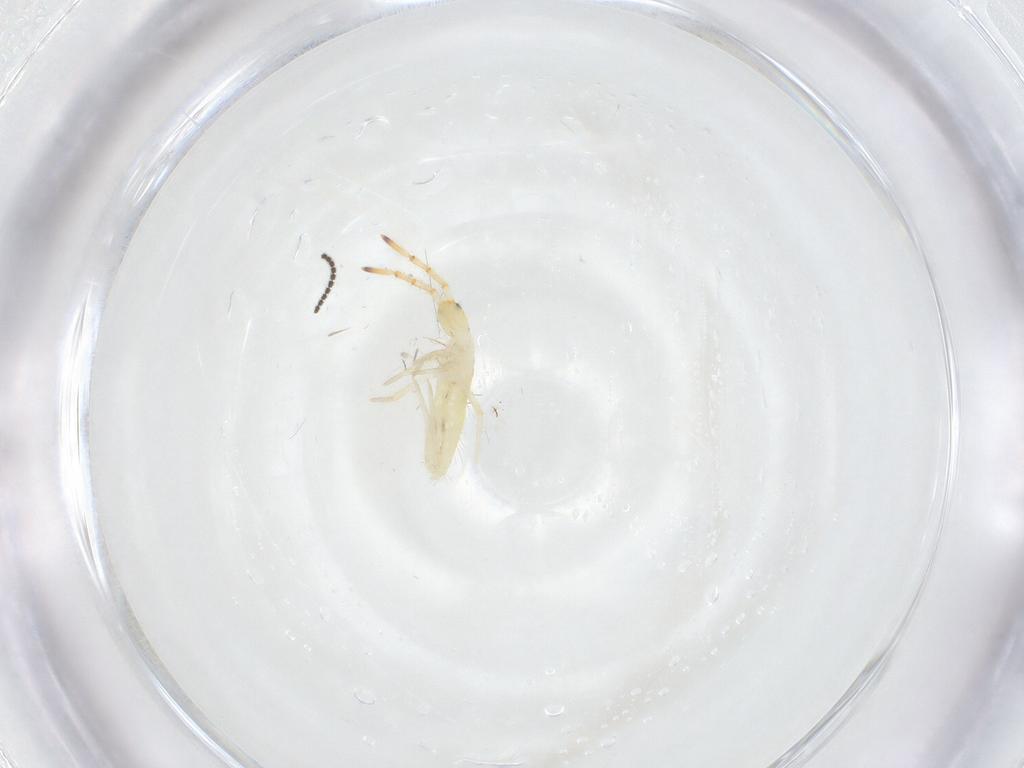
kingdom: Animalia
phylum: Arthropoda
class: Collembola
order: Entomobryomorpha
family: Entomobryidae
